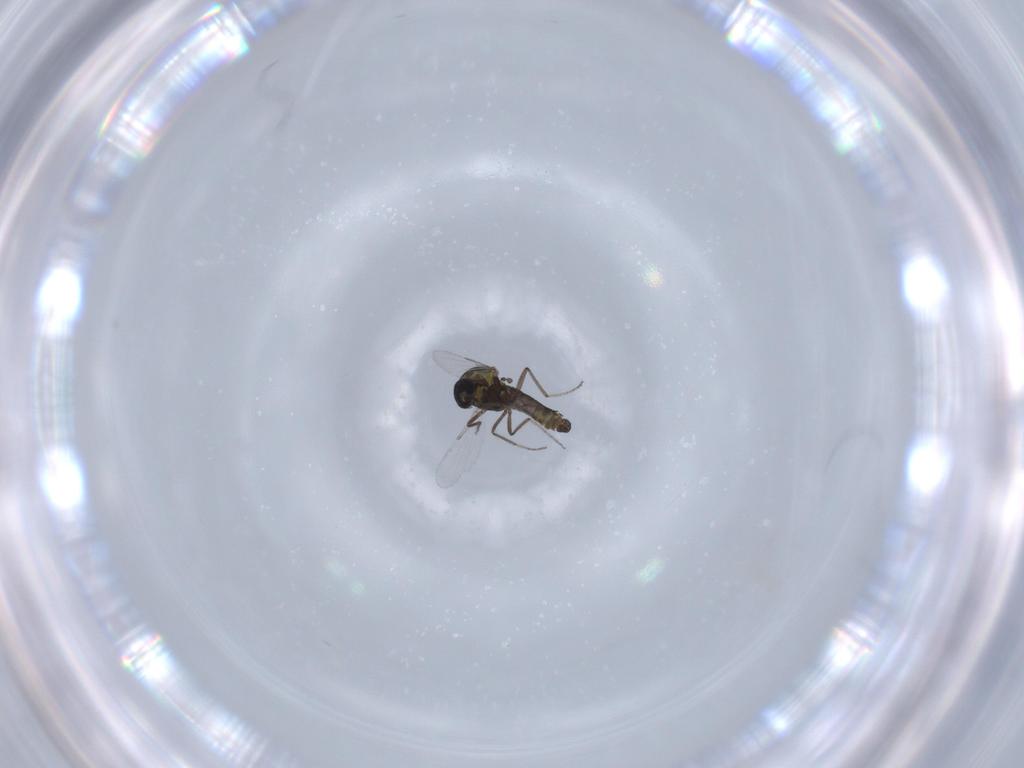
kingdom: Animalia
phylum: Arthropoda
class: Insecta
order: Diptera
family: Ceratopogonidae
